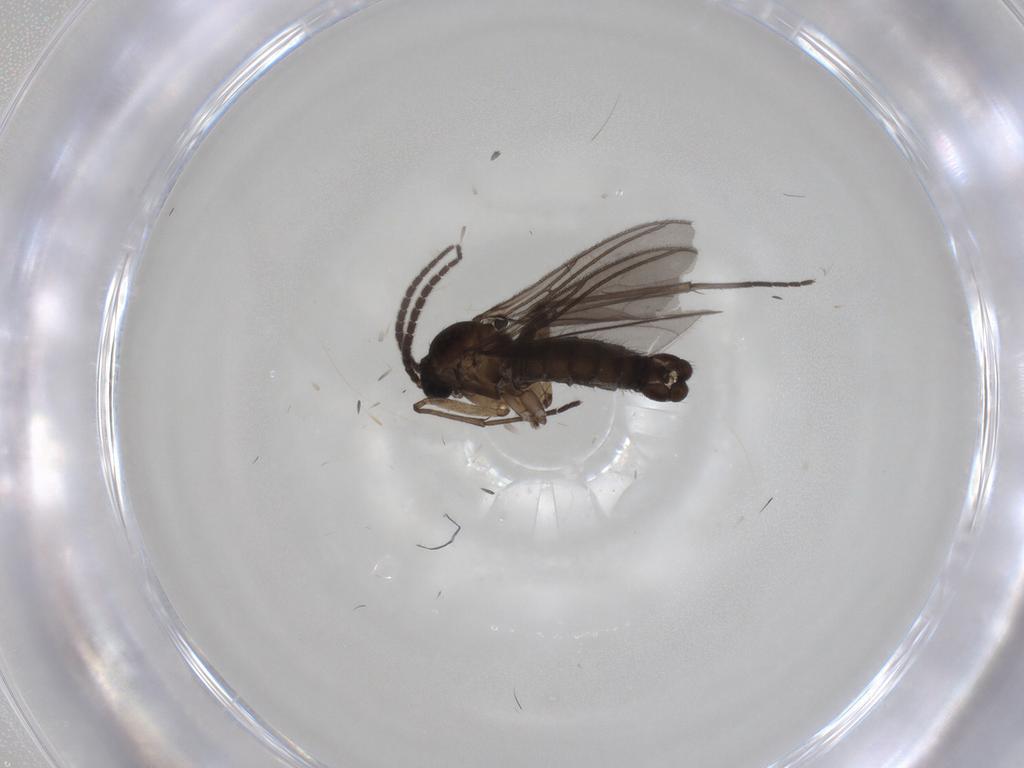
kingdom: Animalia
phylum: Arthropoda
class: Insecta
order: Diptera
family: Sciaridae
